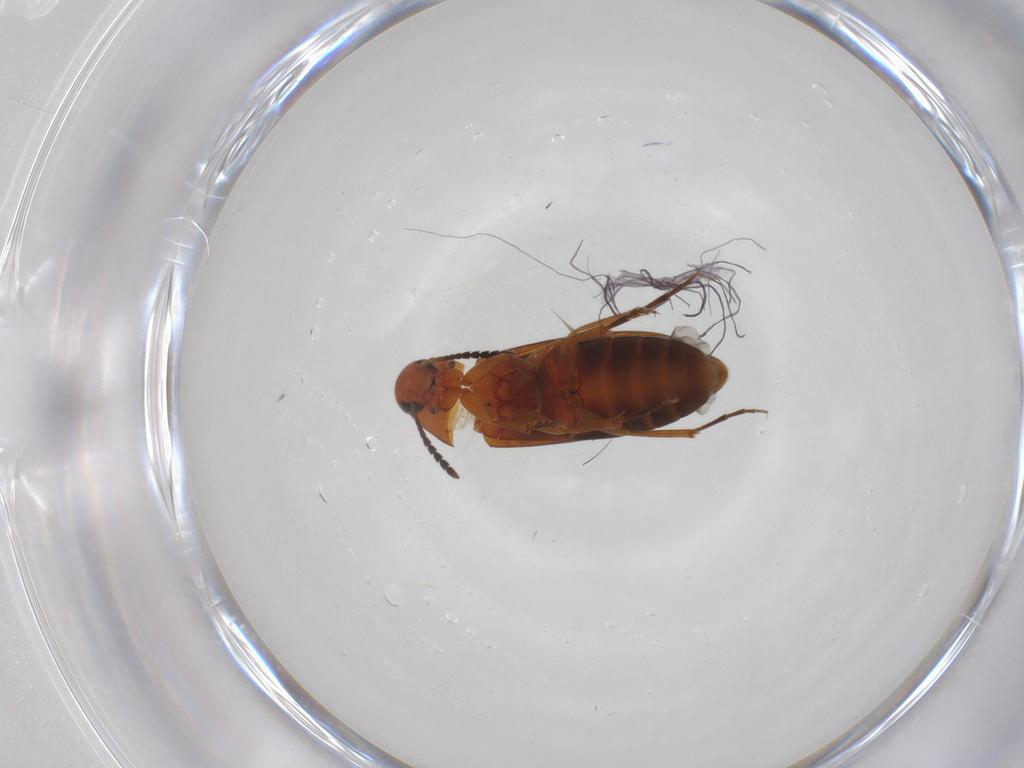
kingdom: Animalia
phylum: Arthropoda
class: Insecta
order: Coleoptera
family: Scraptiidae
